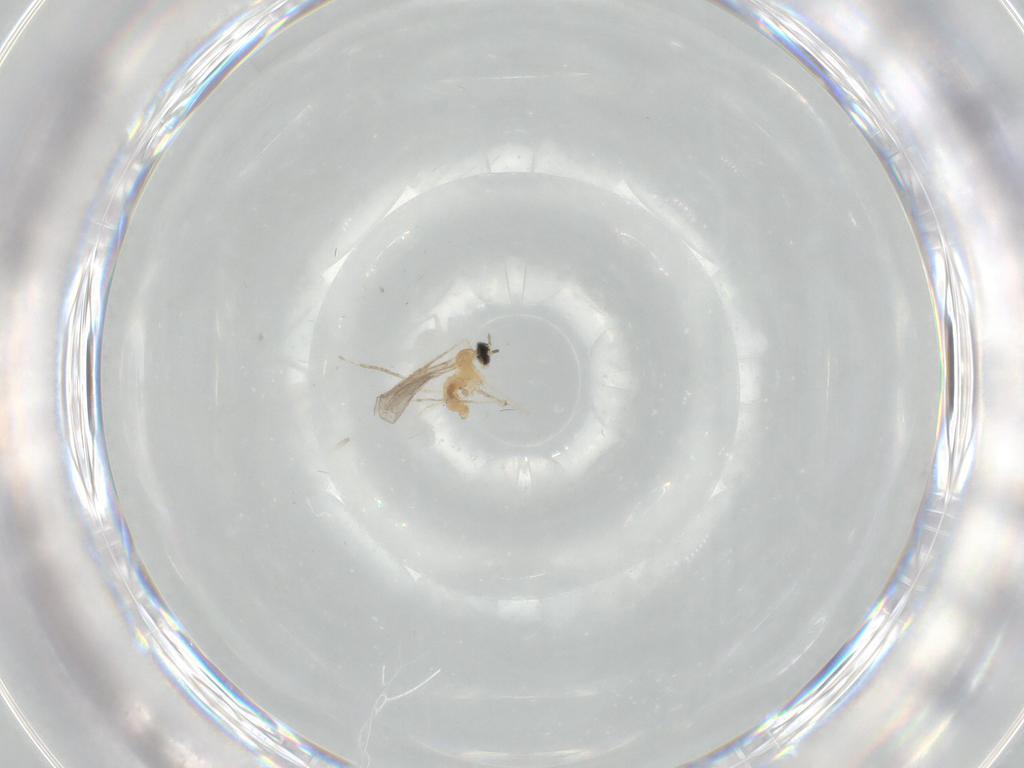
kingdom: Animalia
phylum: Arthropoda
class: Insecta
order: Diptera
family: Cecidomyiidae
